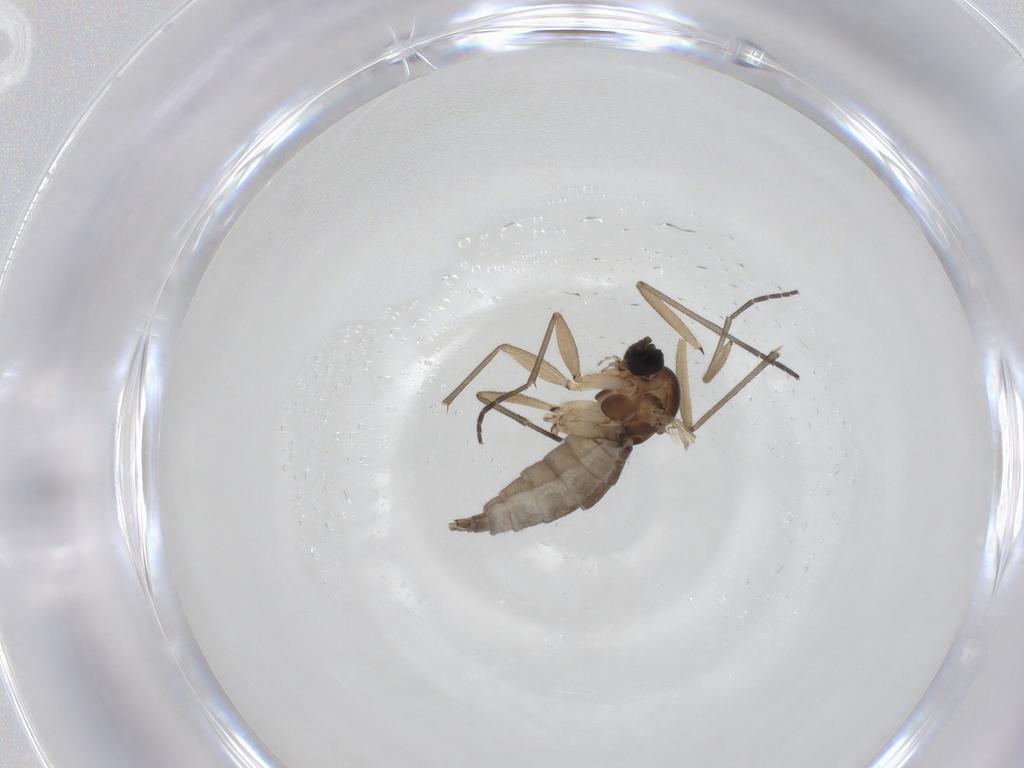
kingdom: Animalia
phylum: Arthropoda
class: Insecta
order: Diptera
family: Sciaridae
